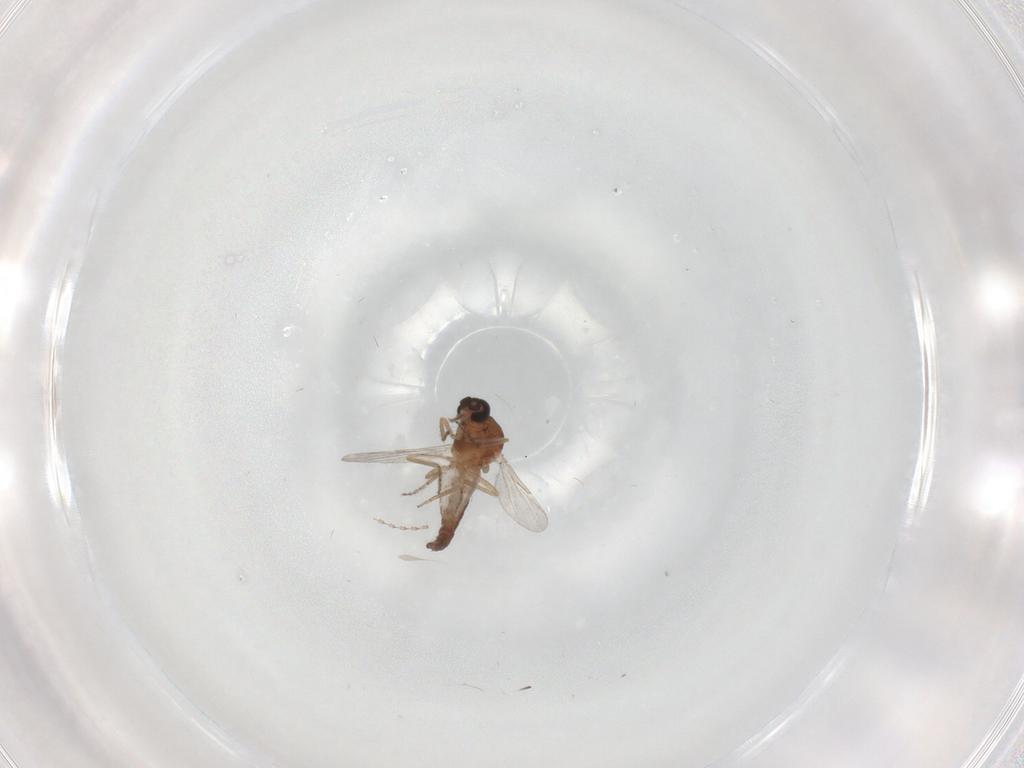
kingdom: Animalia
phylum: Arthropoda
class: Insecta
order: Diptera
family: Ceratopogonidae
